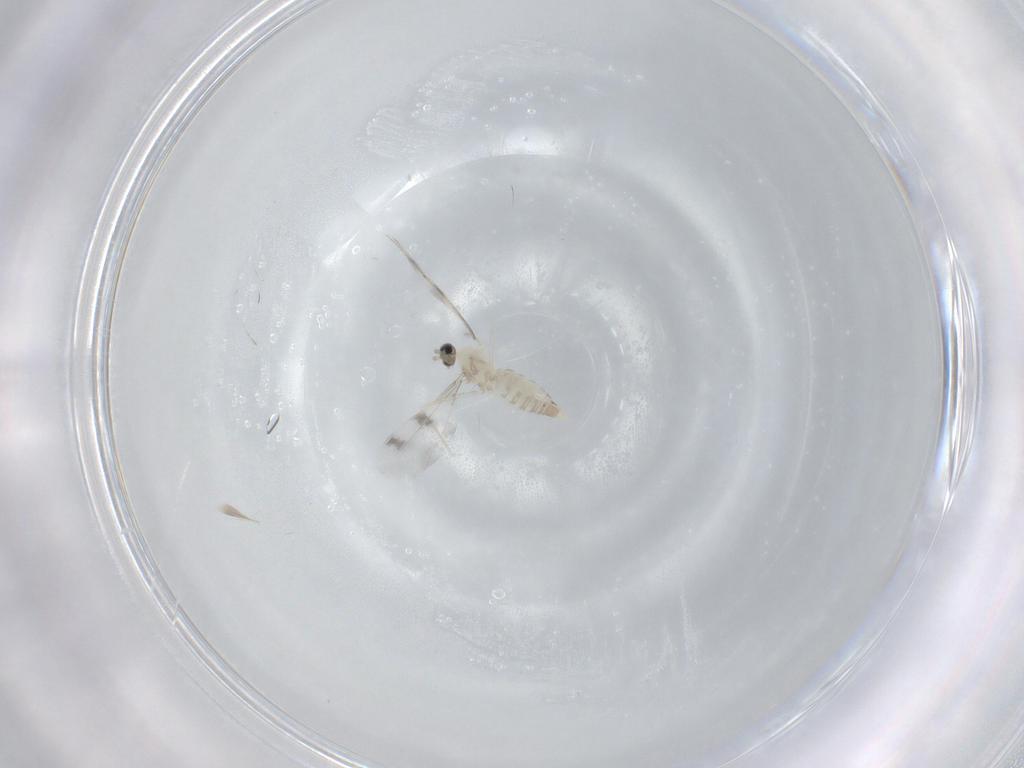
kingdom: Animalia
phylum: Arthropoda
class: Insecta
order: Diptera
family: Cecidomyiidae
